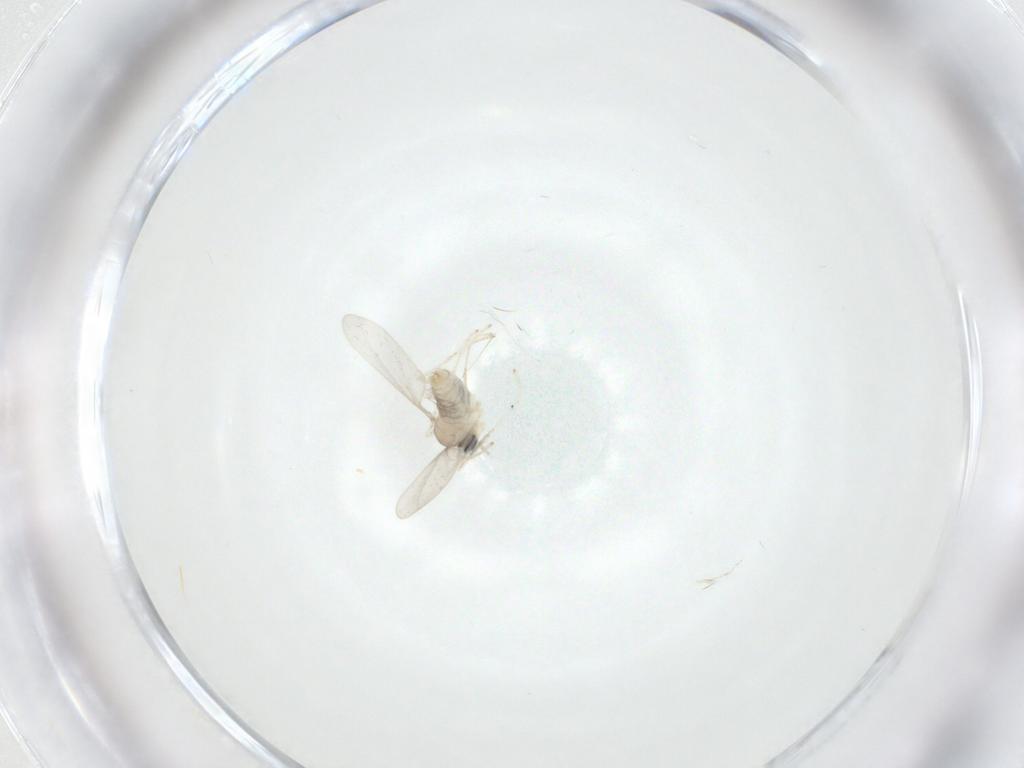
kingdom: Animalia
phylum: Arthropoda
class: Insecta
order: Diptera
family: Cecidomyiidae
